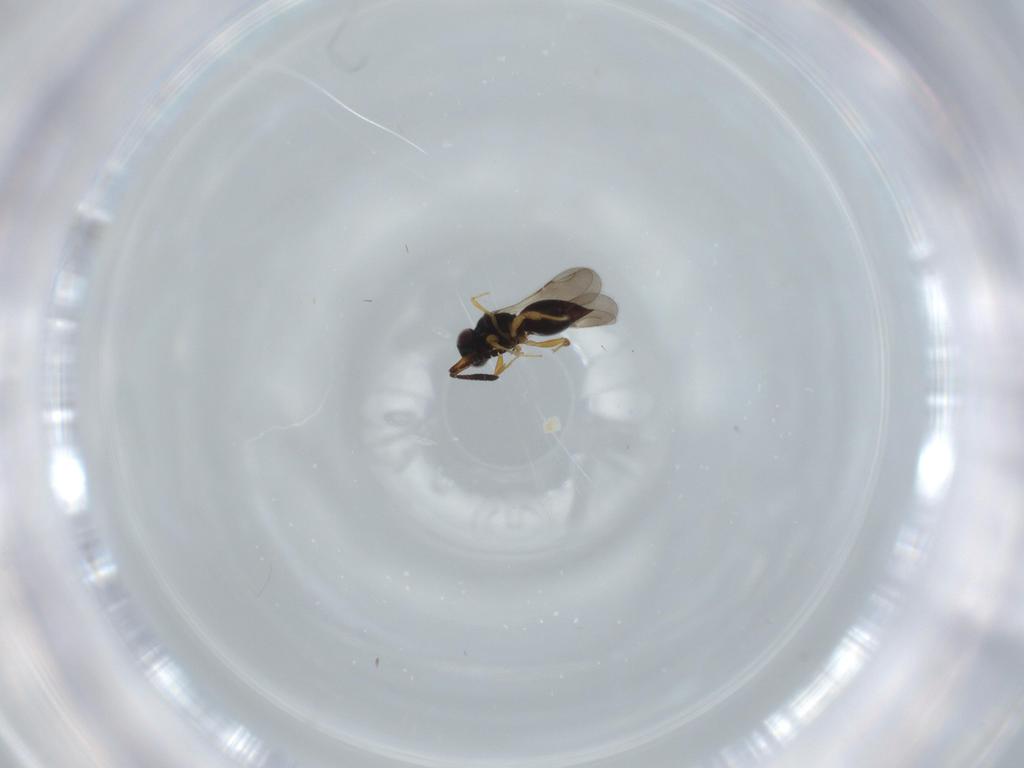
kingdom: Animalia
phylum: Arthropoda
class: Insecta
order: Hymenoptera
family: Ceraphronidae
